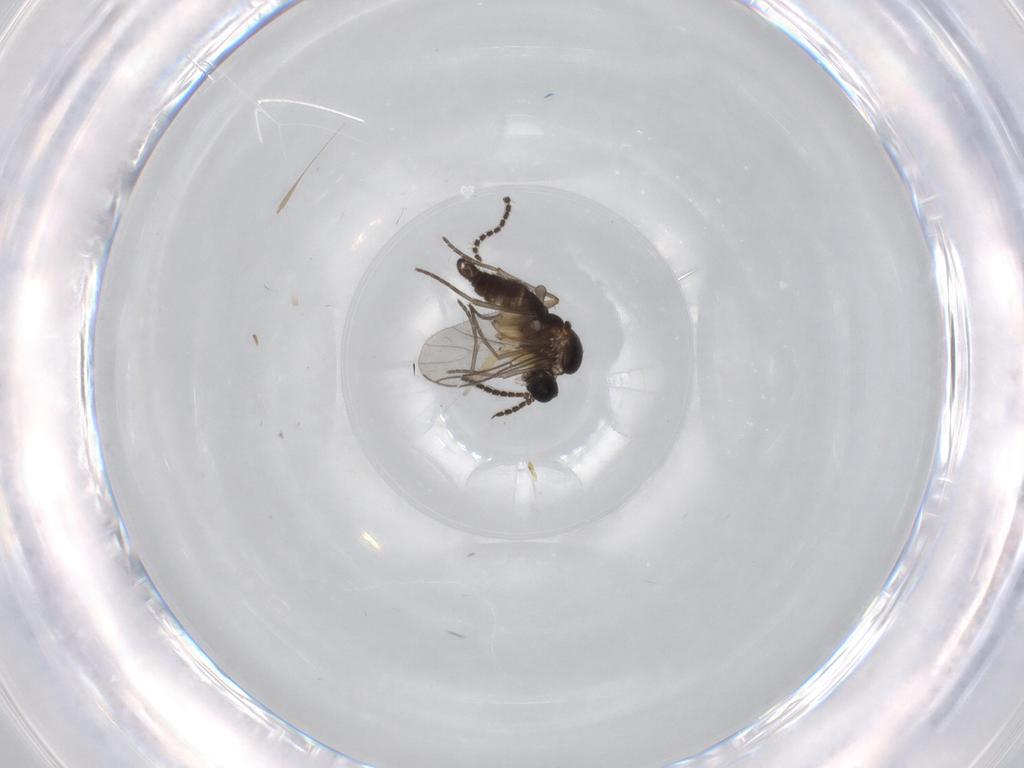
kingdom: Animalia
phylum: Arthropoda
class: Insecta
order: Diptera
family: Sciaridae
